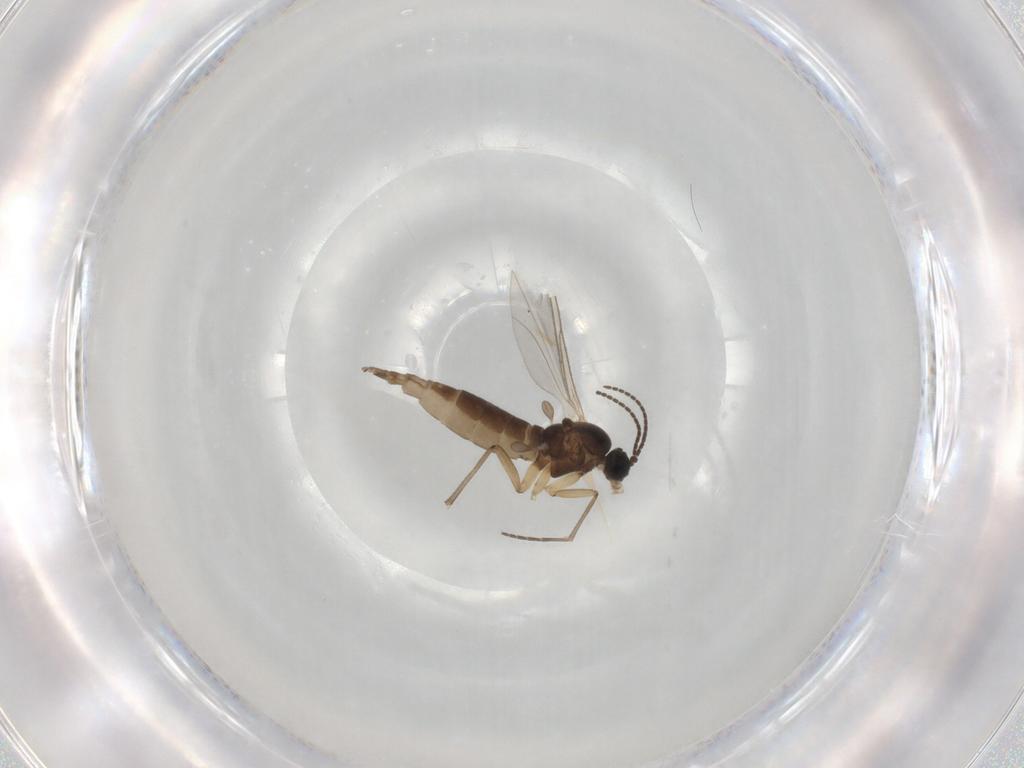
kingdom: Animalia
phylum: Arthropoda
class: Insecta
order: Diptera
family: Sciaridae
